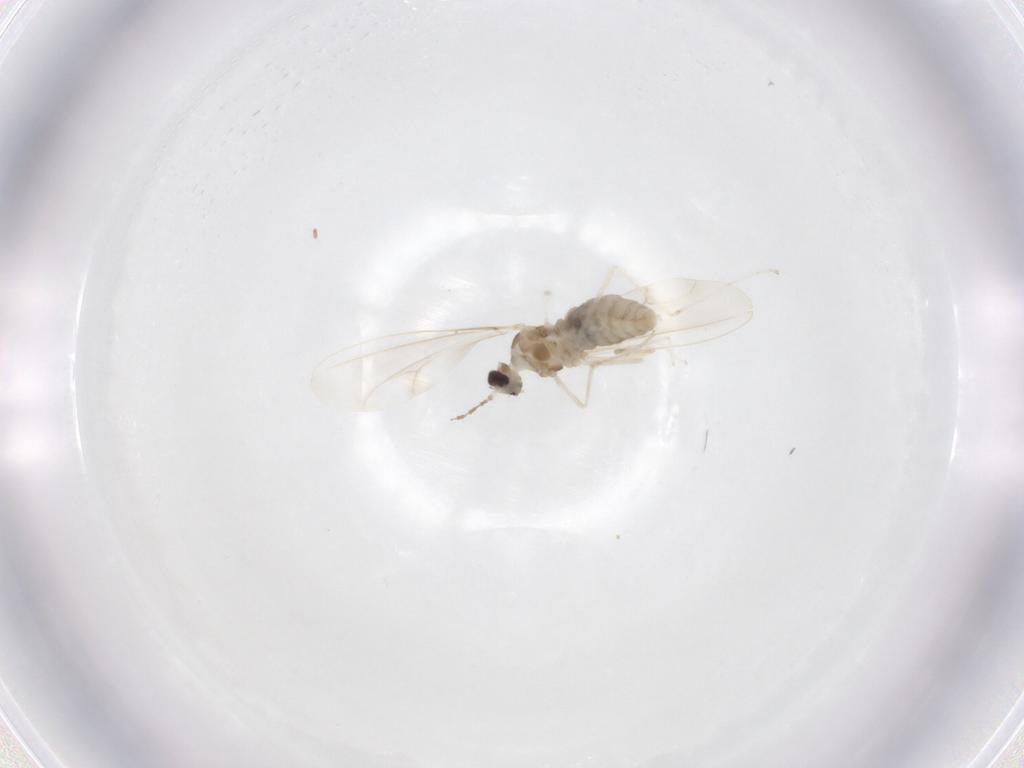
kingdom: Animalia
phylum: Arthropoda
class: Insecta
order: Diptera
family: Cecidomyiidae
